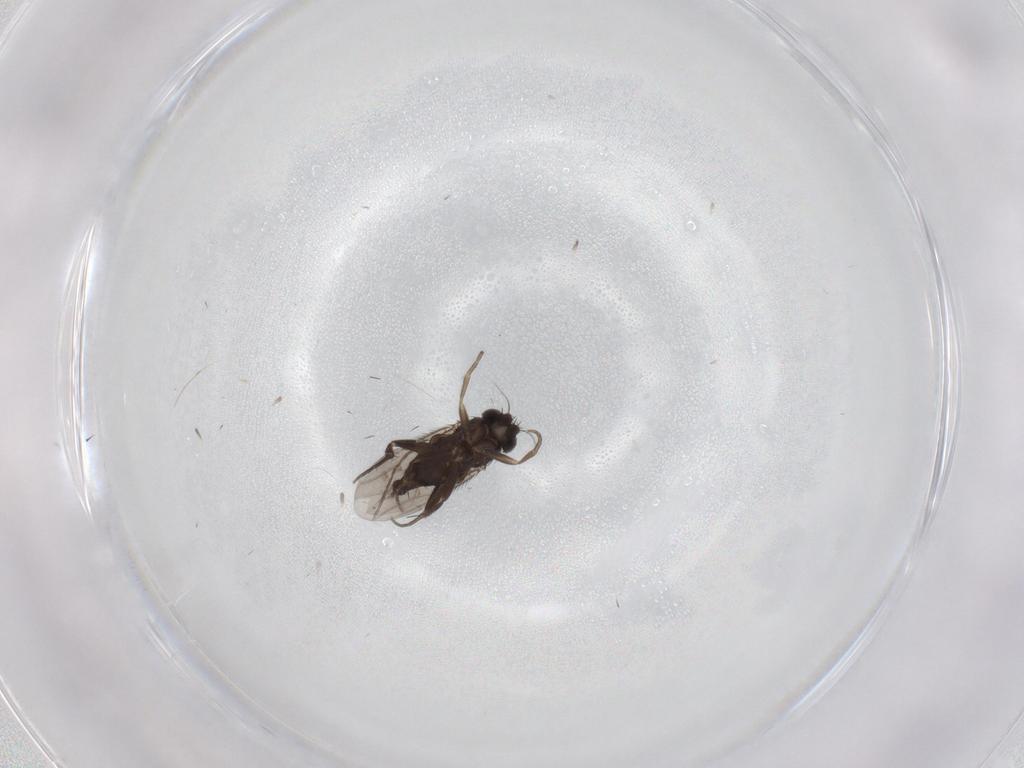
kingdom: Animalia
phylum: Arthropoda
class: Insecta
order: Diptera
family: Phoridae
